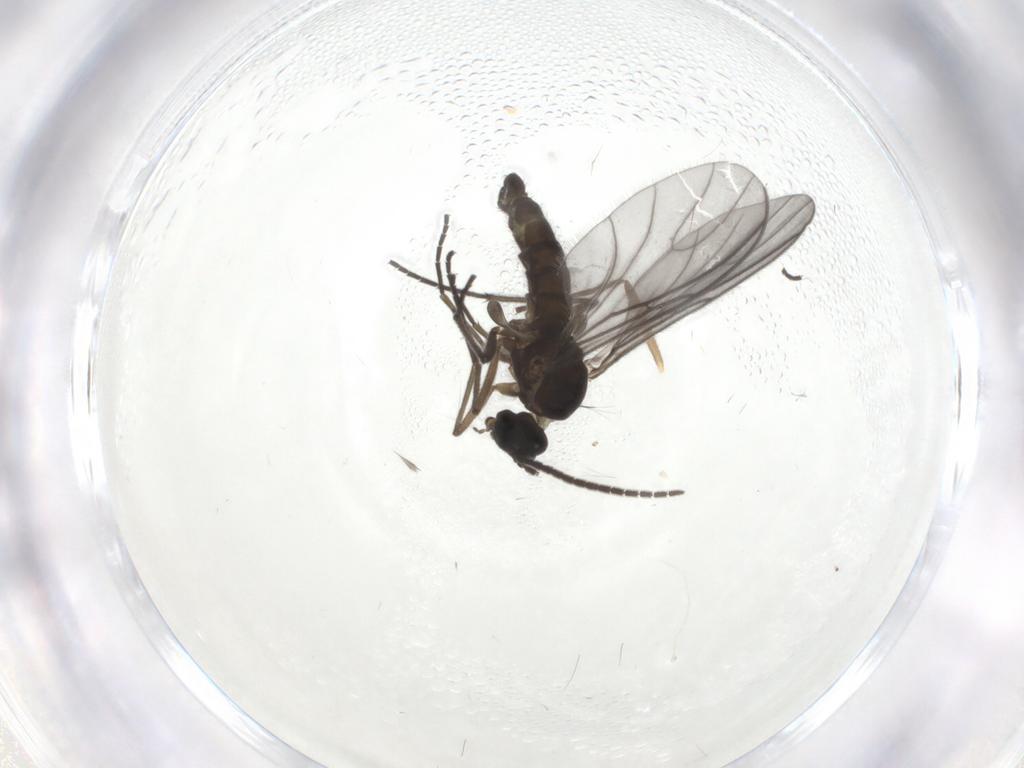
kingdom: Animalia
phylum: Arthropoda
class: Insecta
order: Diptera
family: Sciaridae
